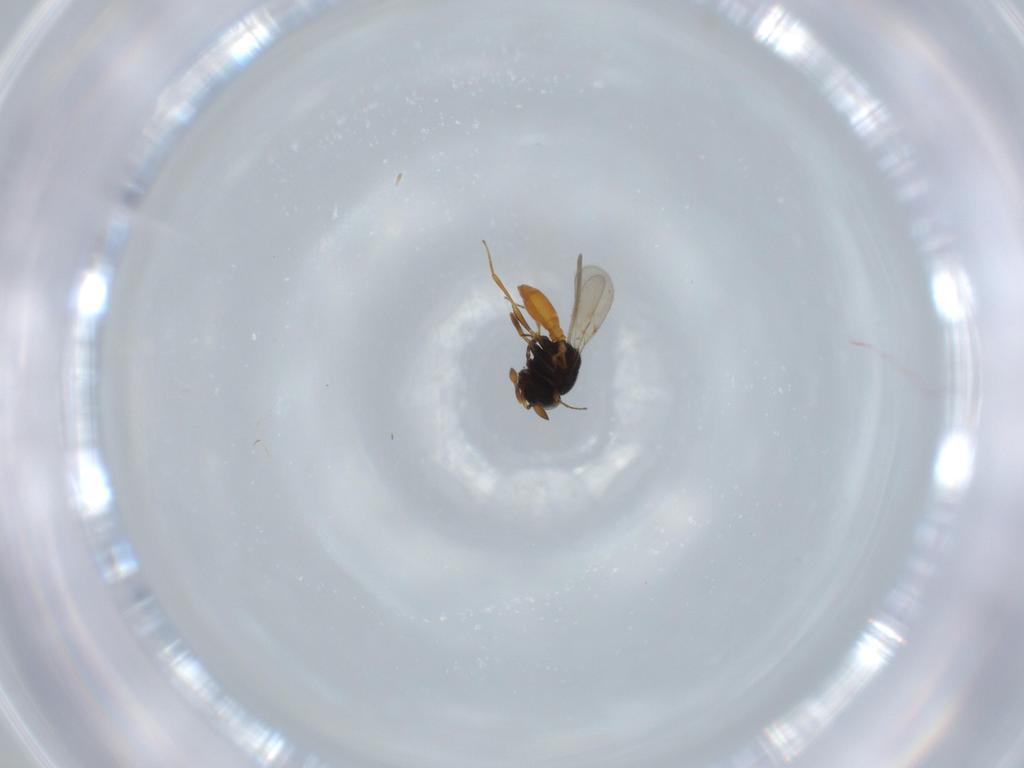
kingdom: Animalia
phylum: Arthropoda
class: Insecta
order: Hymenoptera
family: Scelionidae
